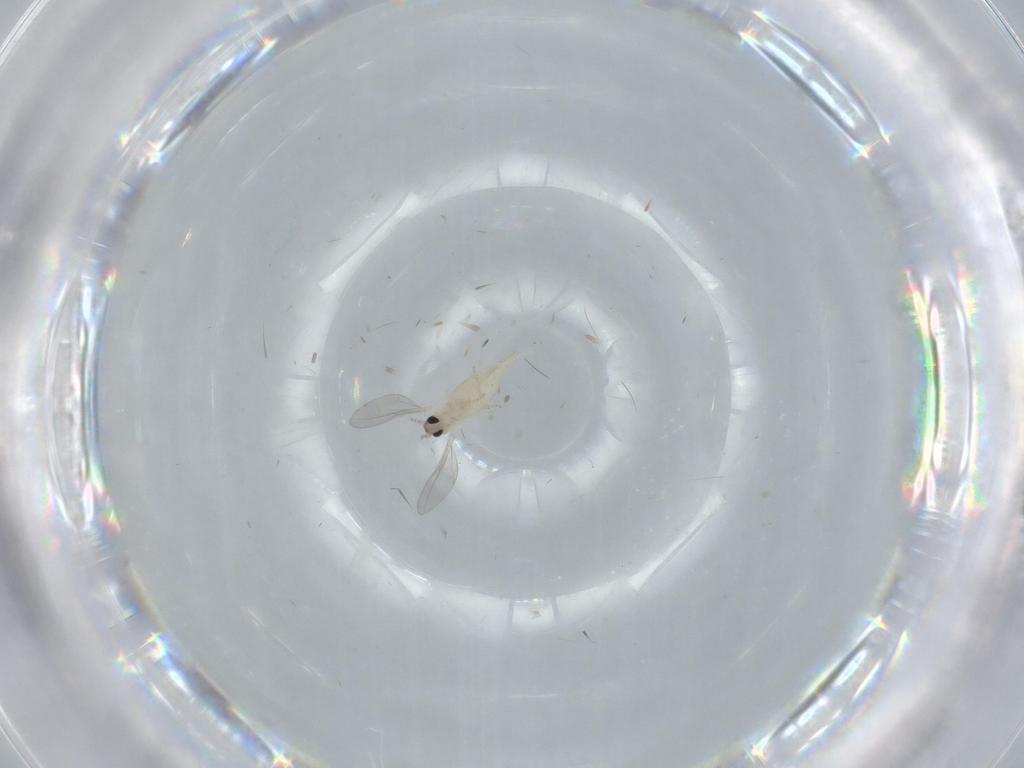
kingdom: Animalia
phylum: Arthropoda
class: Insecta
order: Diptera
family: Cecidomyiidae
